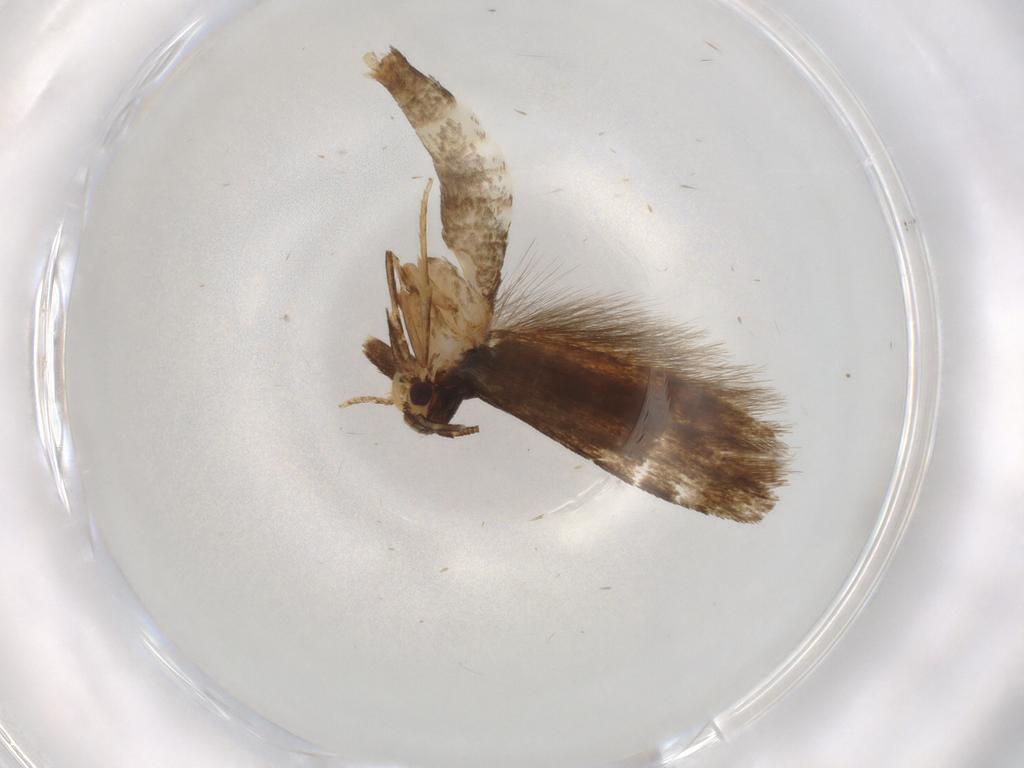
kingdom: Animalia
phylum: Arthropoda
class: Insecta
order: Lepidoptera
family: Tineidae
